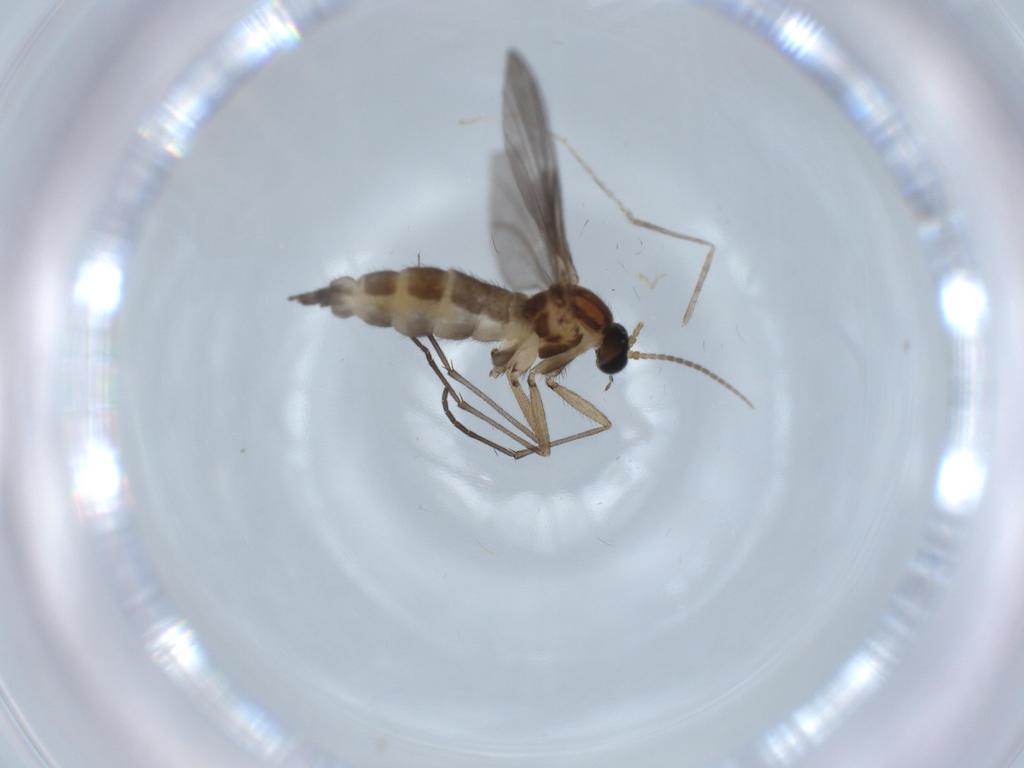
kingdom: Animalia
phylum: Arthropoda
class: Insecta
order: Diptera
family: Sciaridae
